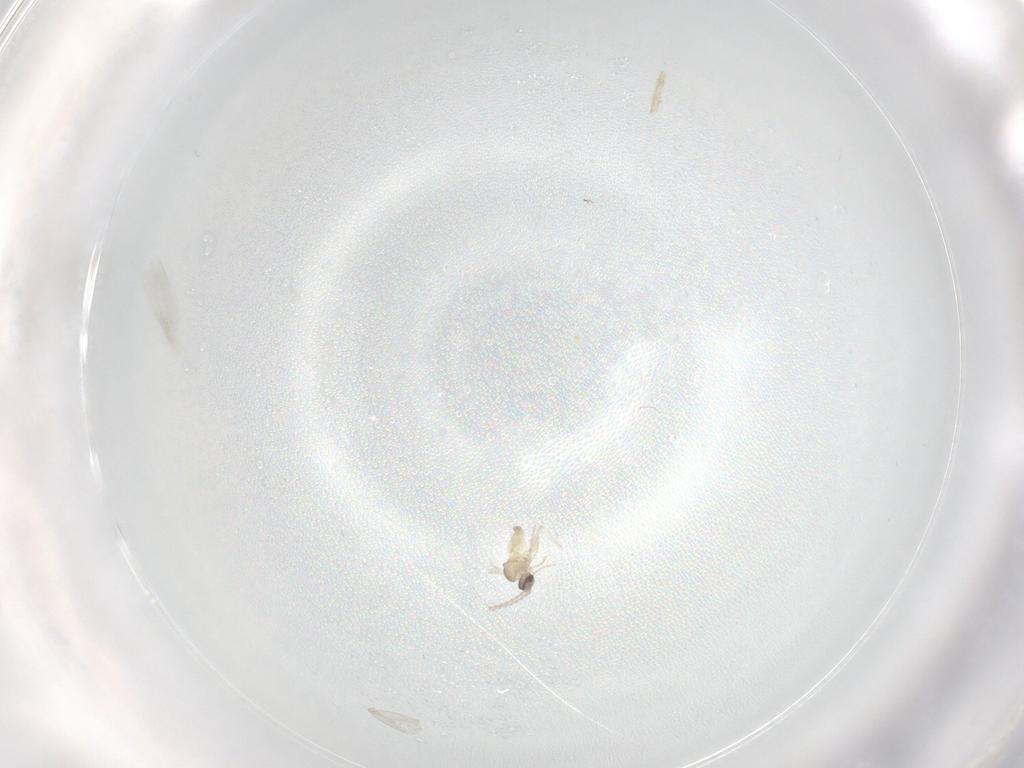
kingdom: Animalia
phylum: Arthropoda
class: Insecta
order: Diptera
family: Cecidomyiidae
